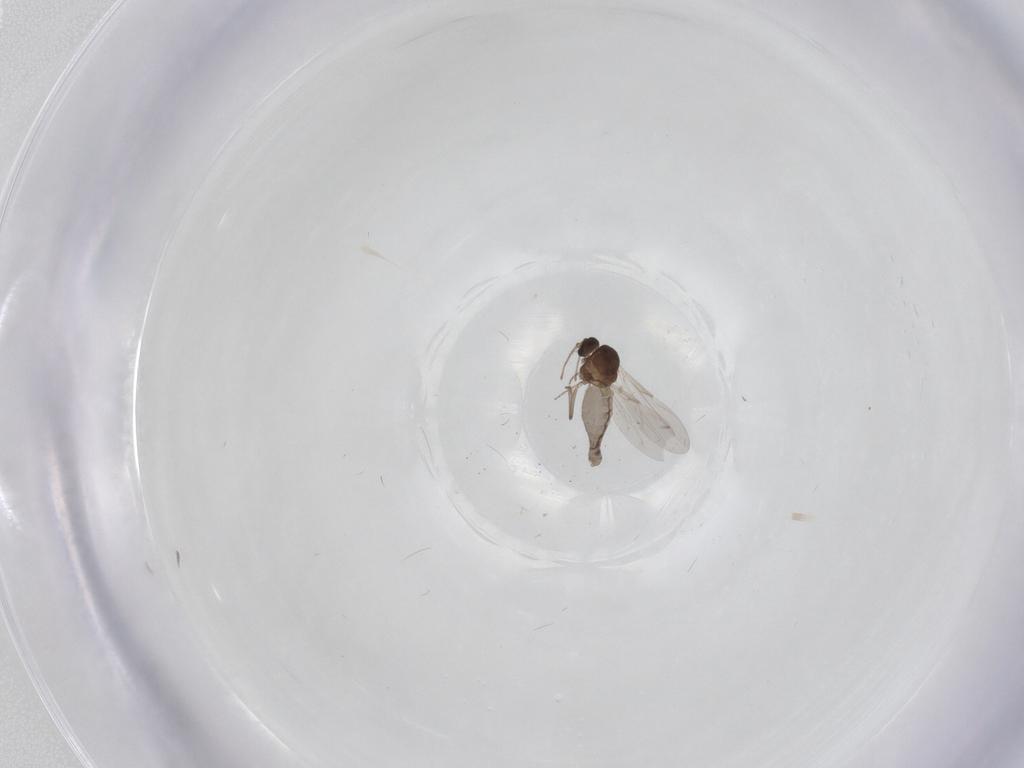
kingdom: Animalia
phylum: Arthropoda
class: Insecta
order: Diptera
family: Ceratopogonidae
